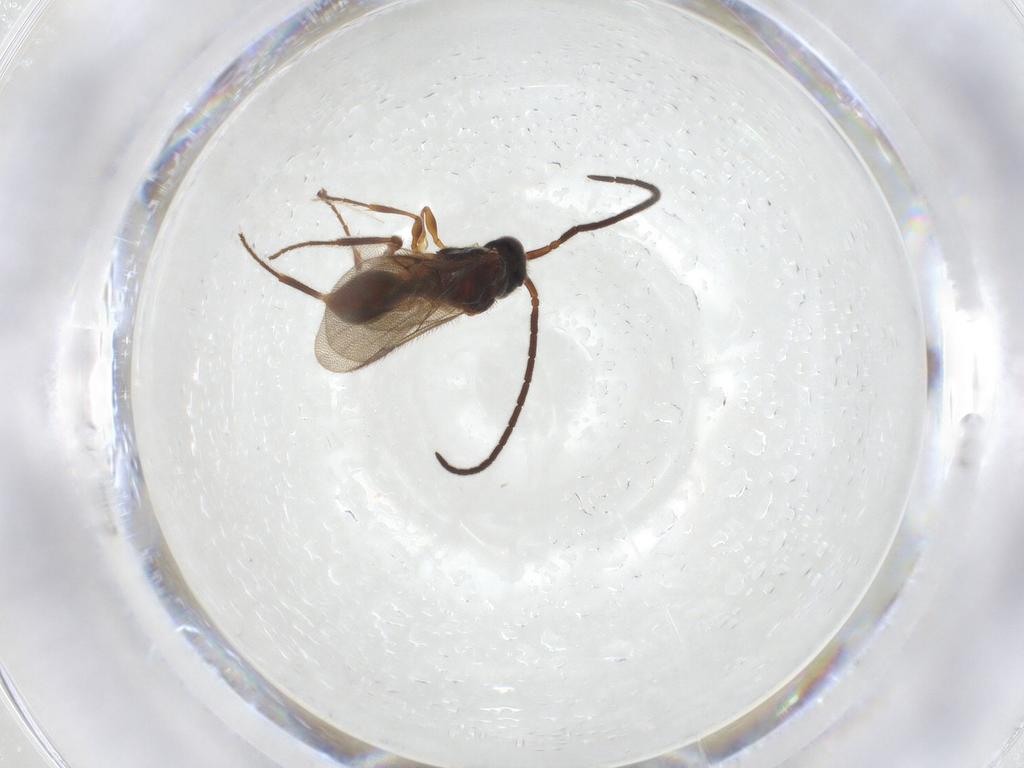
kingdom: Animalia
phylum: Arthropoda
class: Insecta
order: Hymenoptera
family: Diapriidae
